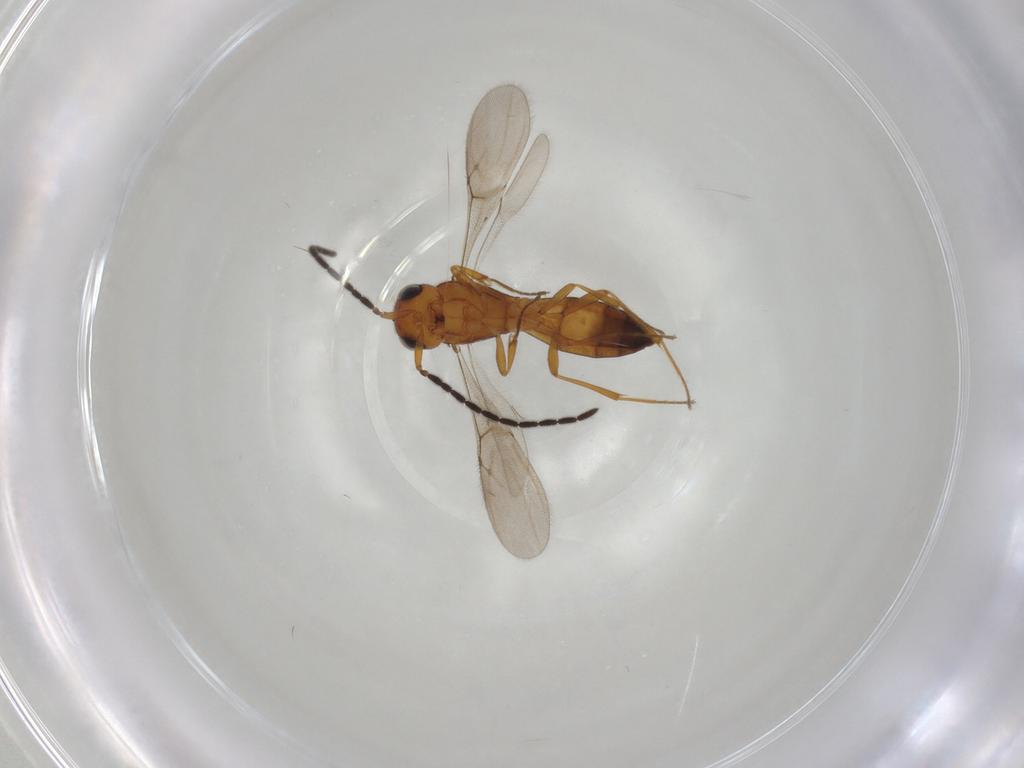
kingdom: Animalia
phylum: Arthropoda
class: Insecta
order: Hymenoptera
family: Scelionidae
